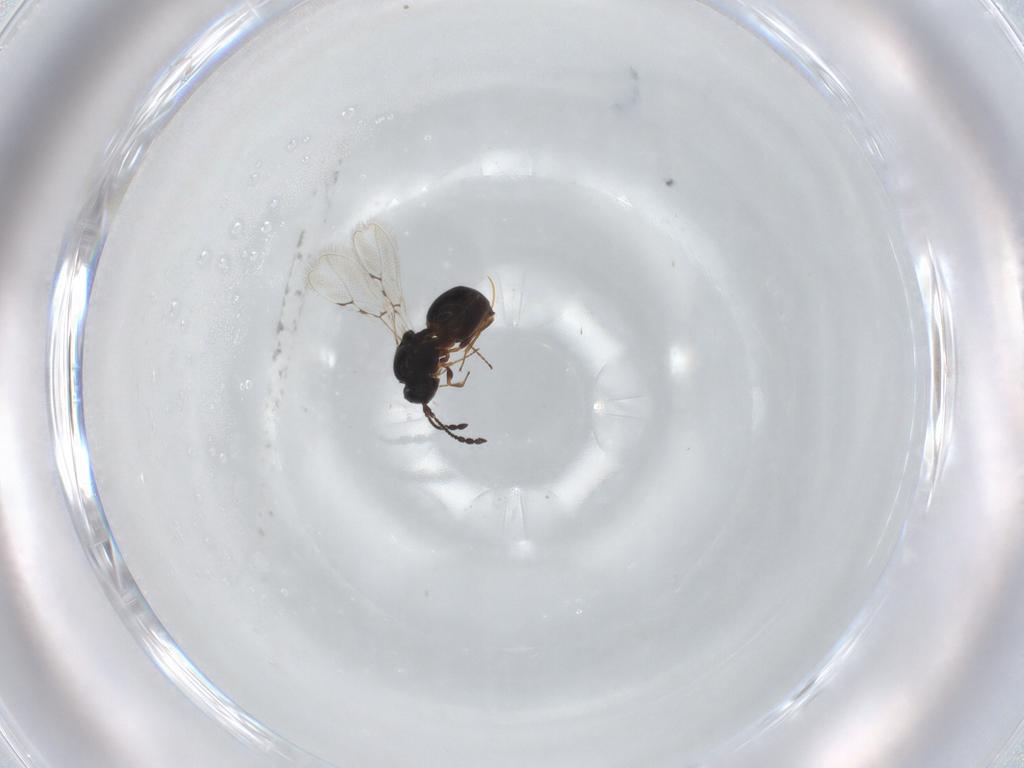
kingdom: Animalia
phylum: Arthropoda
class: Insecta
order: Hymenoptera
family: Figitidae
